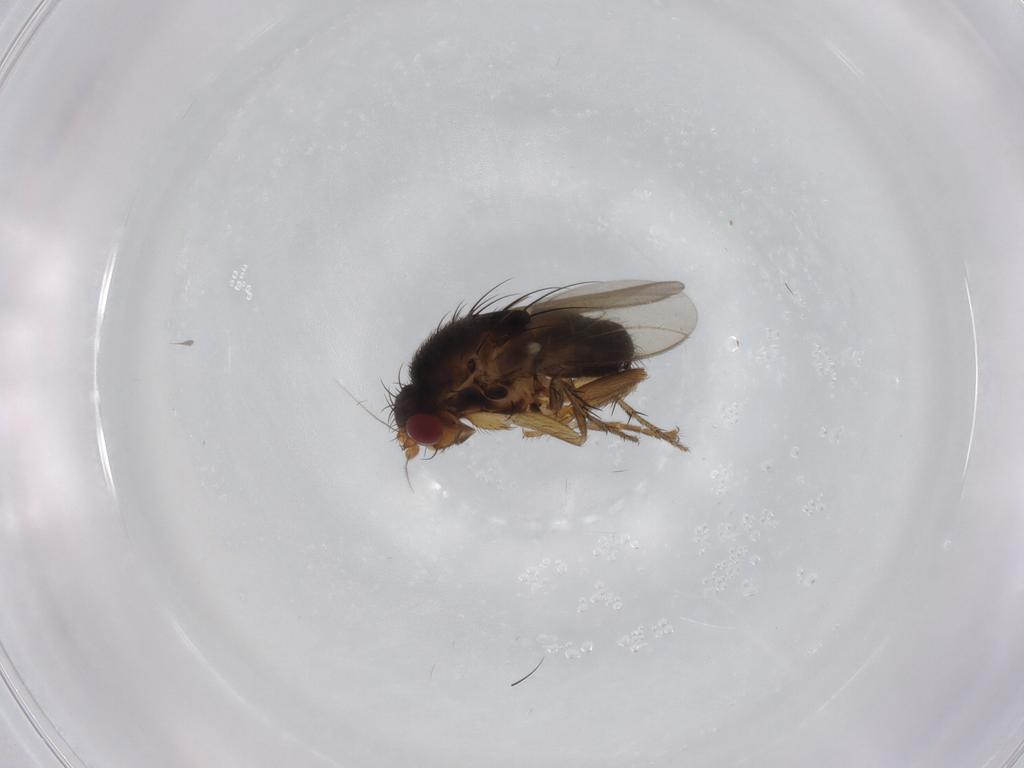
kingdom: Animalia
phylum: Arthropoda
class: Insecta
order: Diptera
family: Sphaeroceridae
